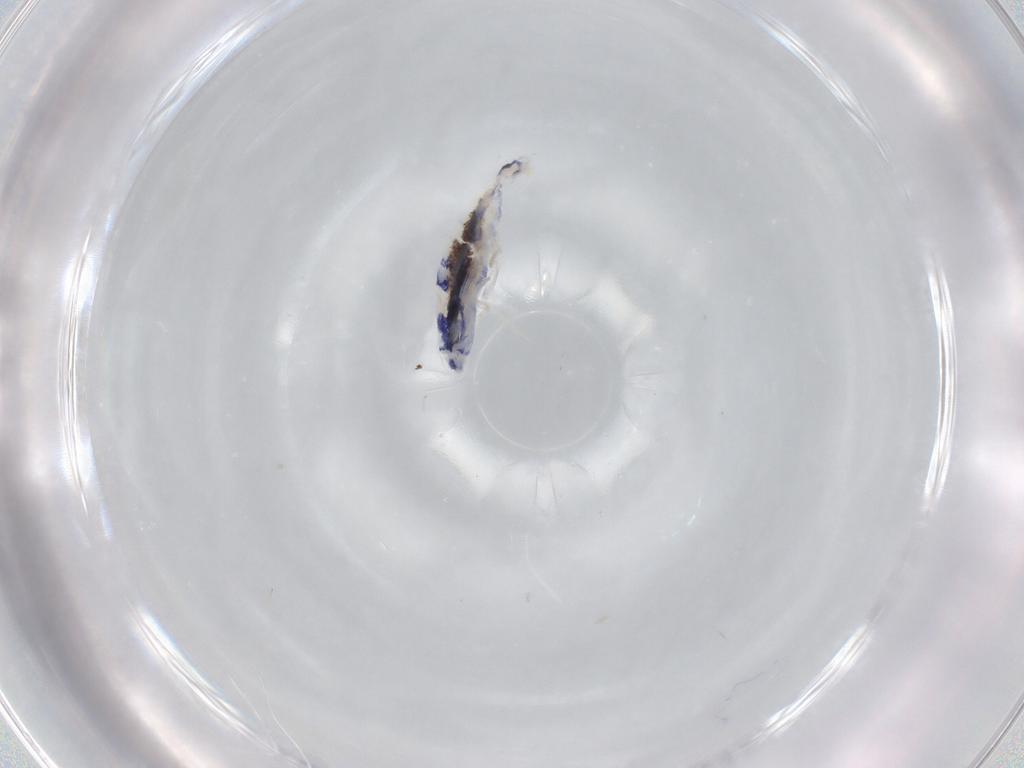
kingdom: Animalia
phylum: Arthropoda
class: Collembola
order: Entomobryomorpha
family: Entomobryidae
